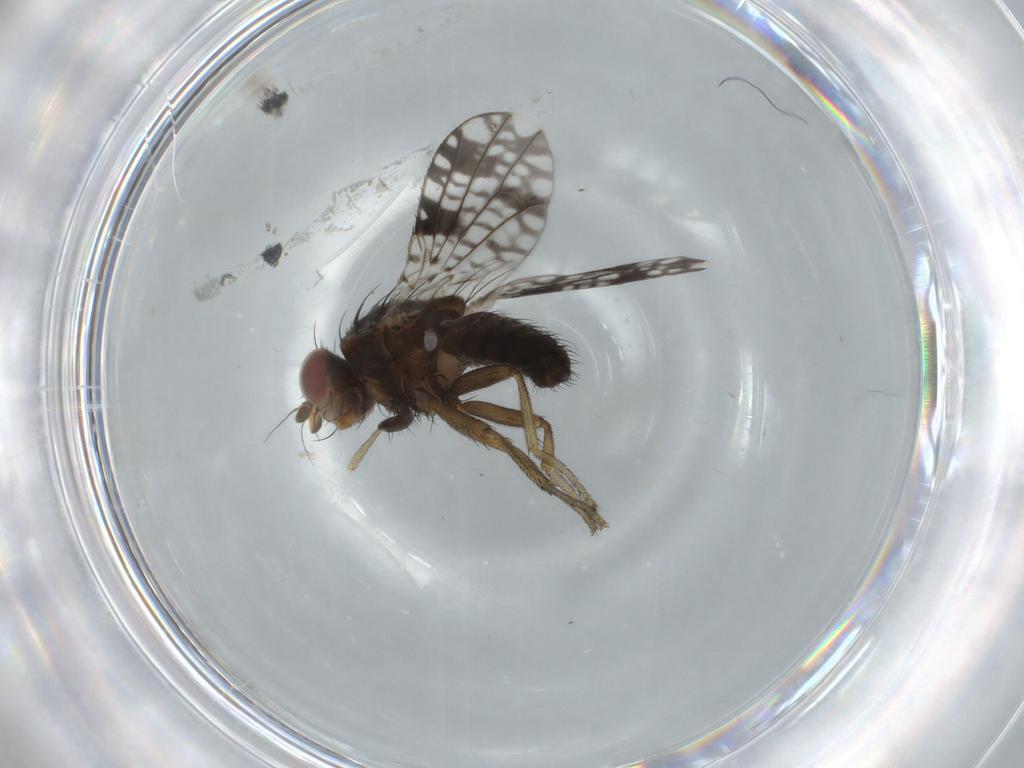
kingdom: Animalia
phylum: Arthropoda
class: Insecta
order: Diptera
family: Tephritidae
